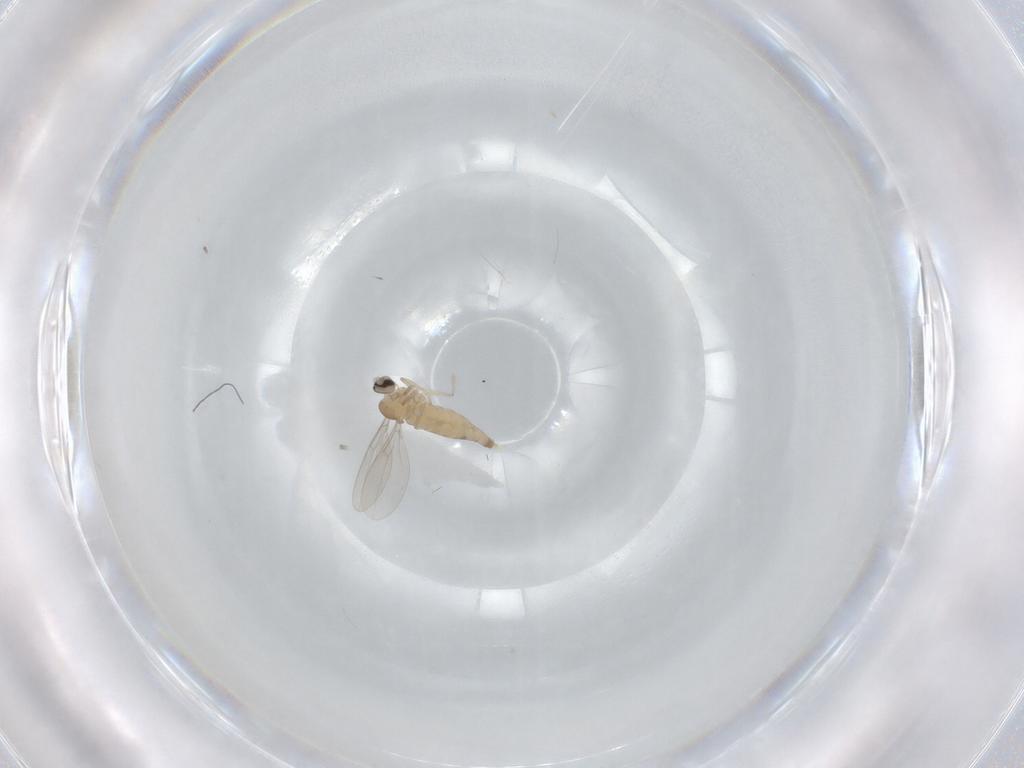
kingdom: Animalia
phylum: Arthropoda
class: Insecta
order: Diptera
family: Cecidomyiidae
